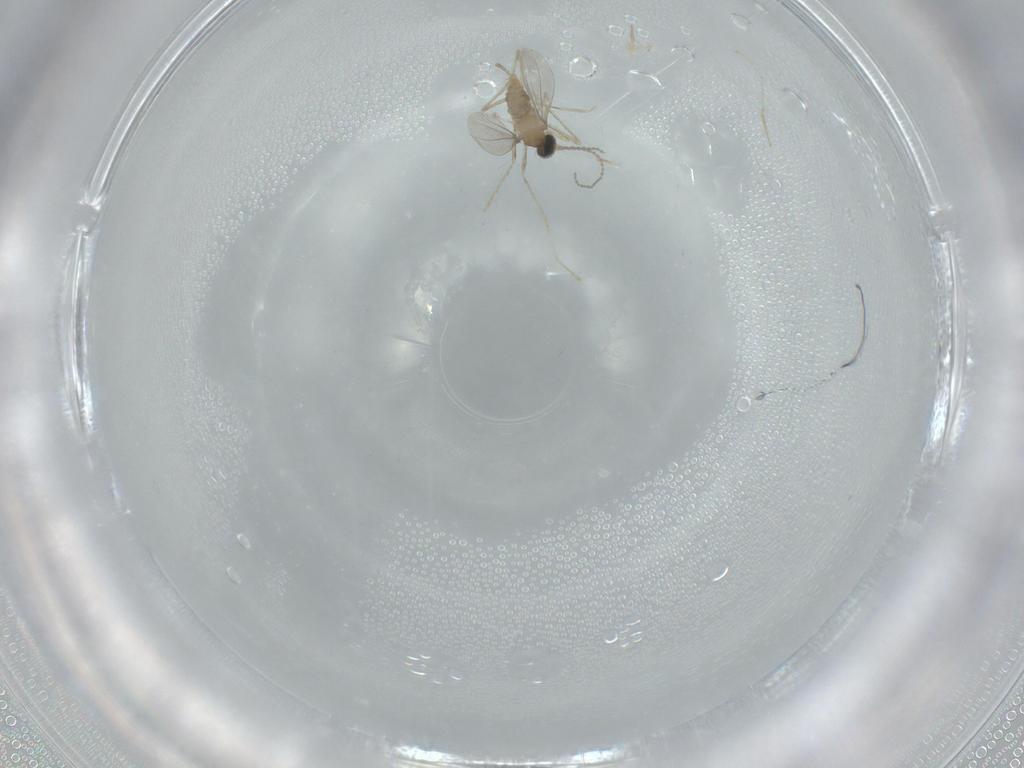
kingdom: Animalia
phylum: Arthropoda
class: Insecta
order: Diptera
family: Cecidomyiidae
